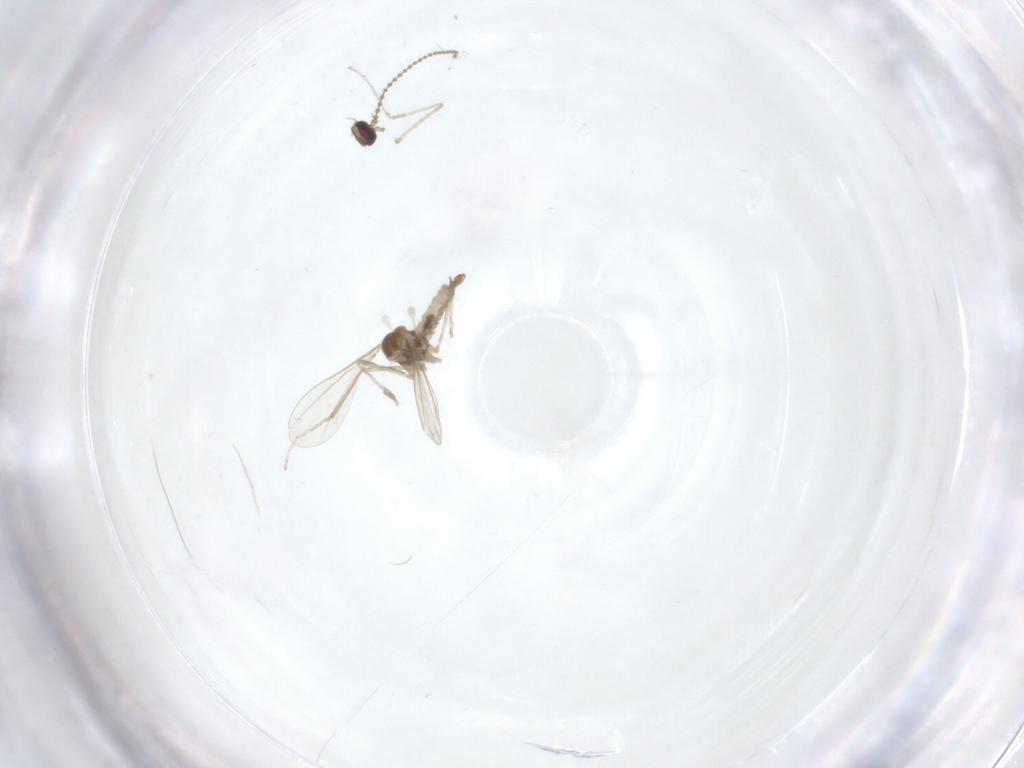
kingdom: Animalia
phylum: Arthropoda
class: Insecta
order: Diptera
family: Cecidomyiidae
